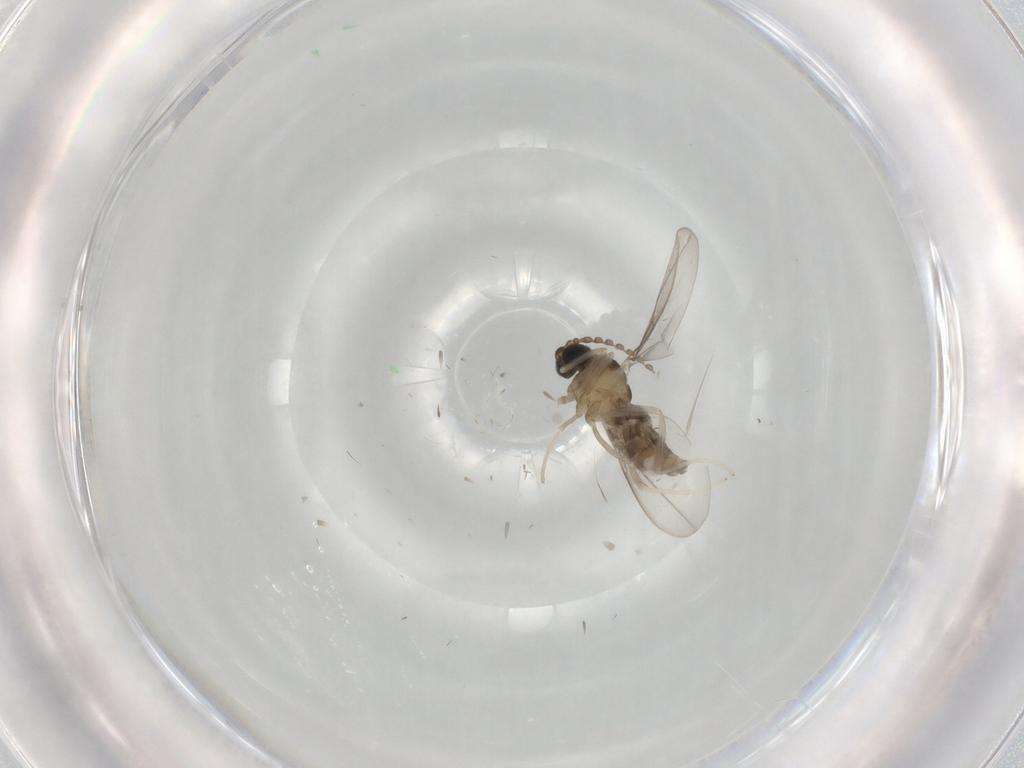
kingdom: Animalia
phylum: Arthropoda
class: Insecta
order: Diptera
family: Cecidomyiidae
